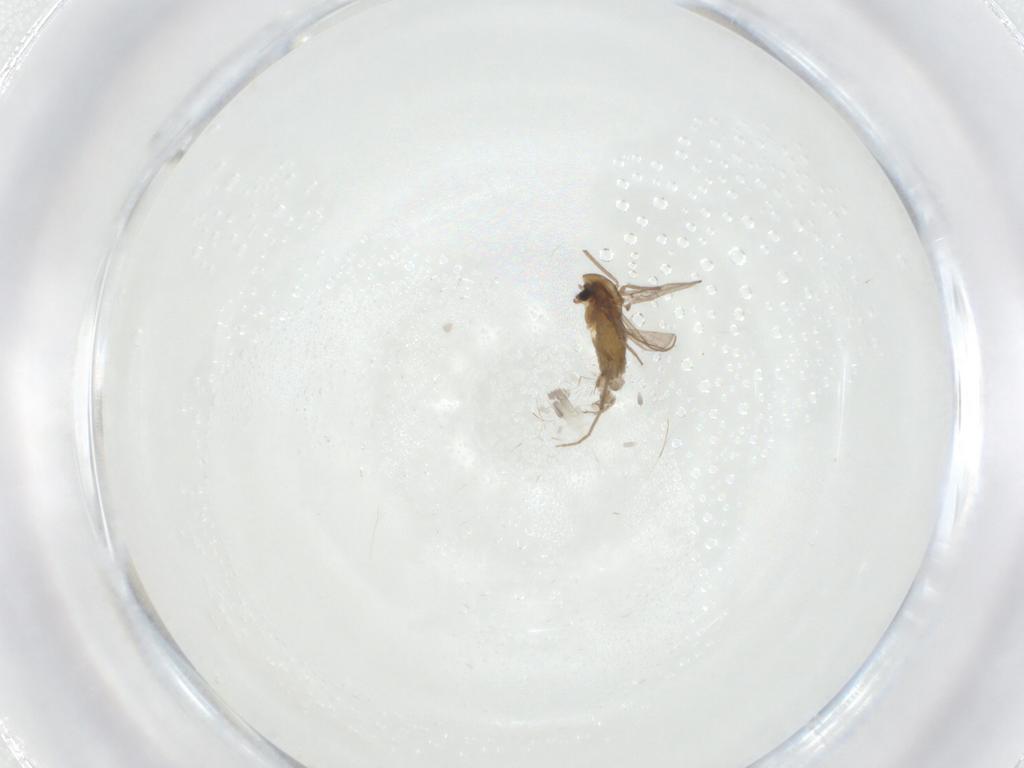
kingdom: Animalia
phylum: Arthropoda
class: Insecta
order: Diptera
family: Chironomidae
